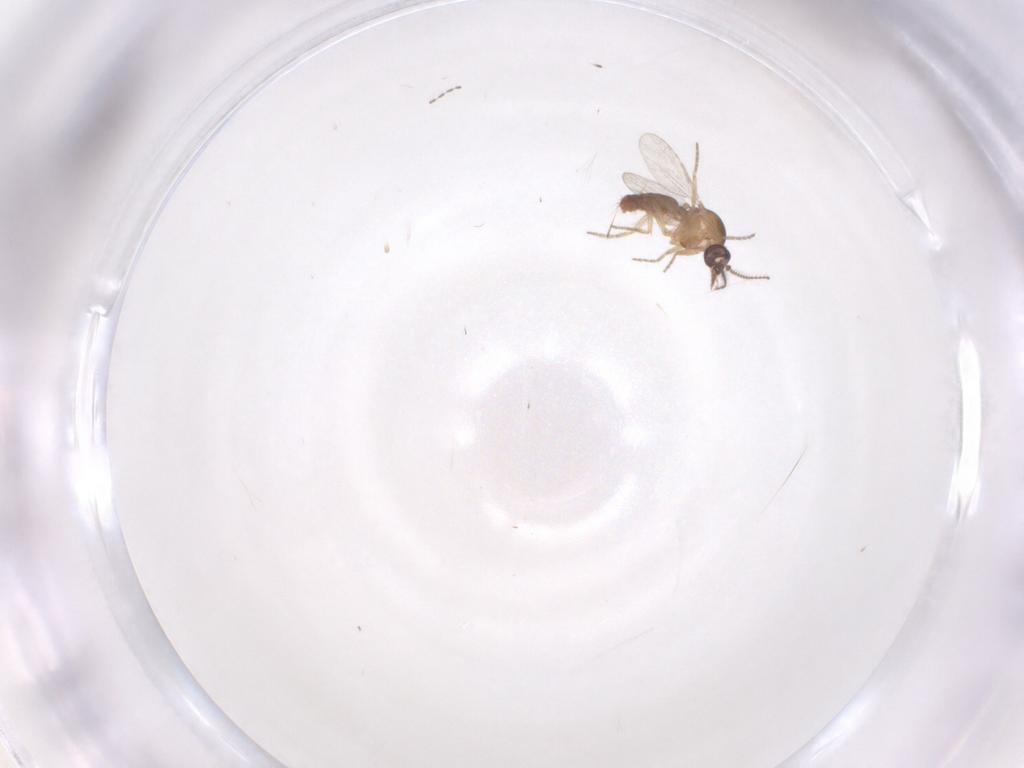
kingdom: Animalia
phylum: Arthropoda
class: Insecta
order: Diptera
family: Cecidomyiidae
